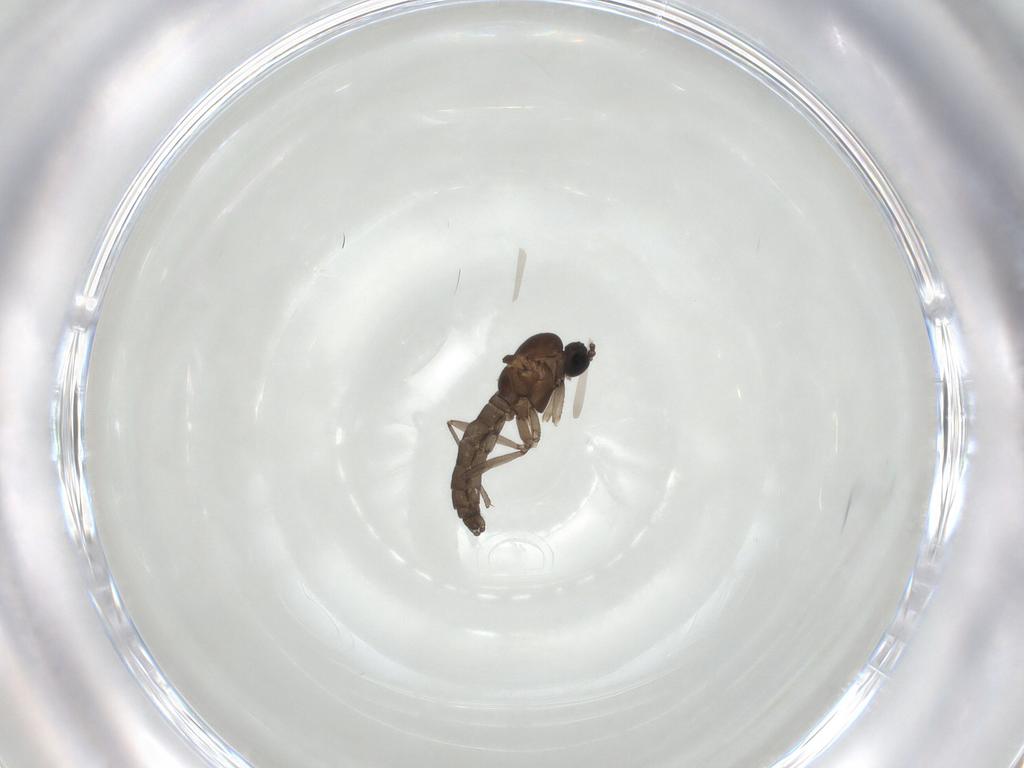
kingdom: Animalia
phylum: Arthropoda
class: Insecta
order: Diptera
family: Sciaridae
